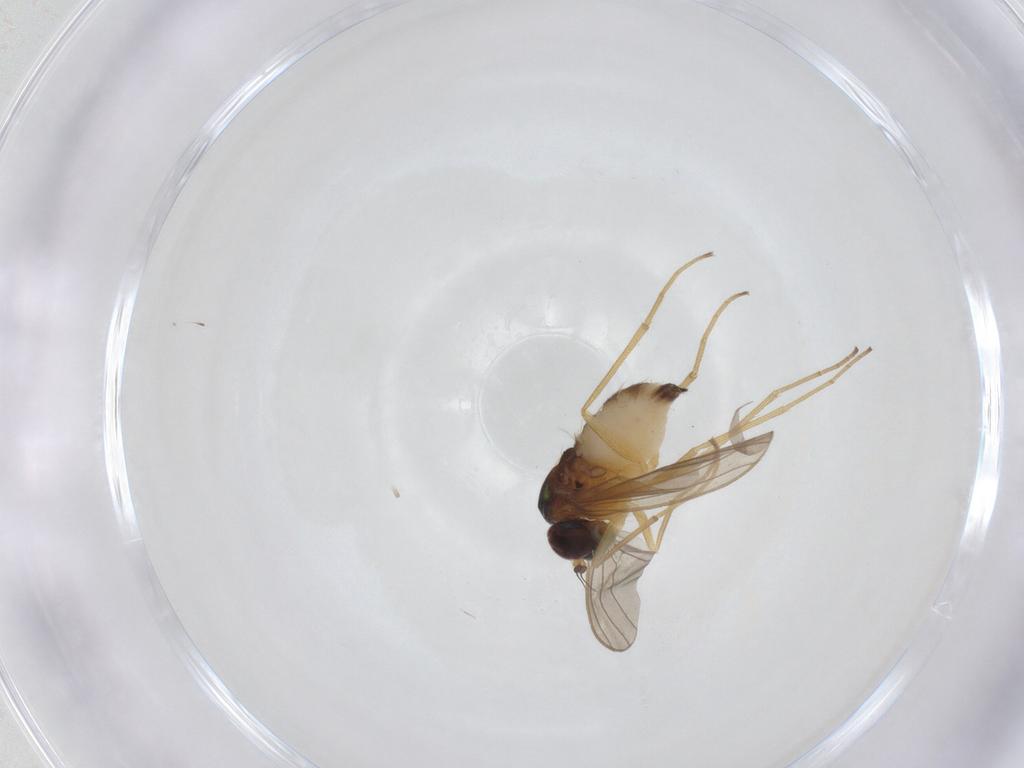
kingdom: Animalia
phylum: Arthropoda
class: Insecta
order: Diptera
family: Dolichopodidae
